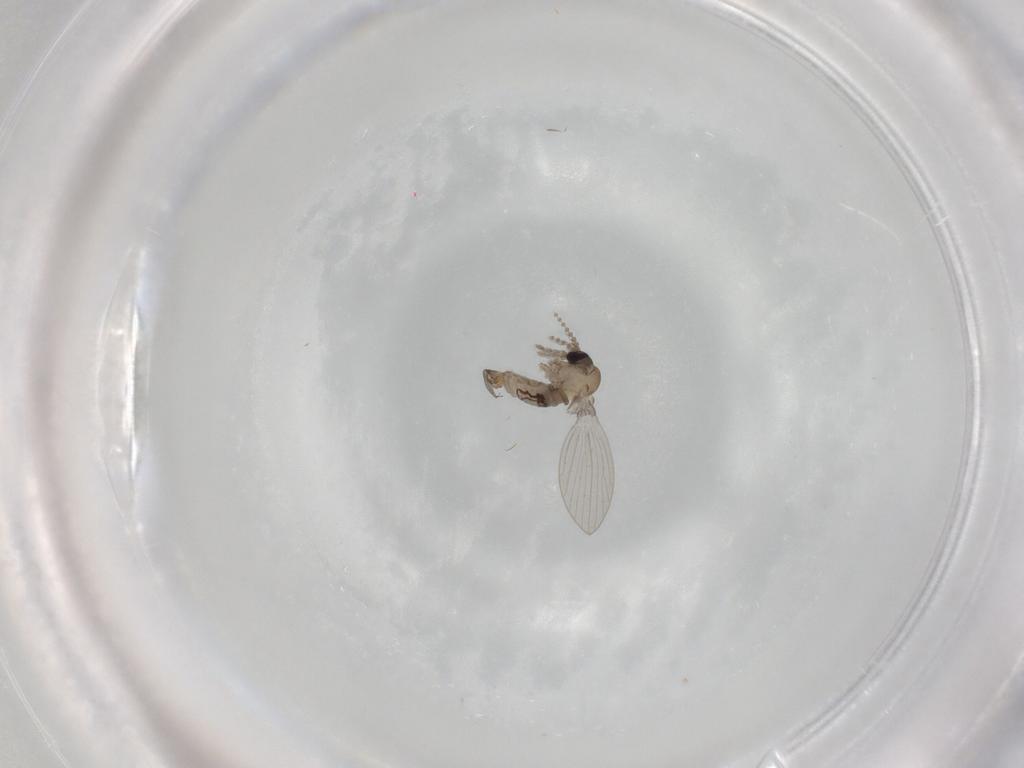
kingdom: Animalia
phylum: Arthropoda
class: Insecta
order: Diptera
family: Psychodidae
